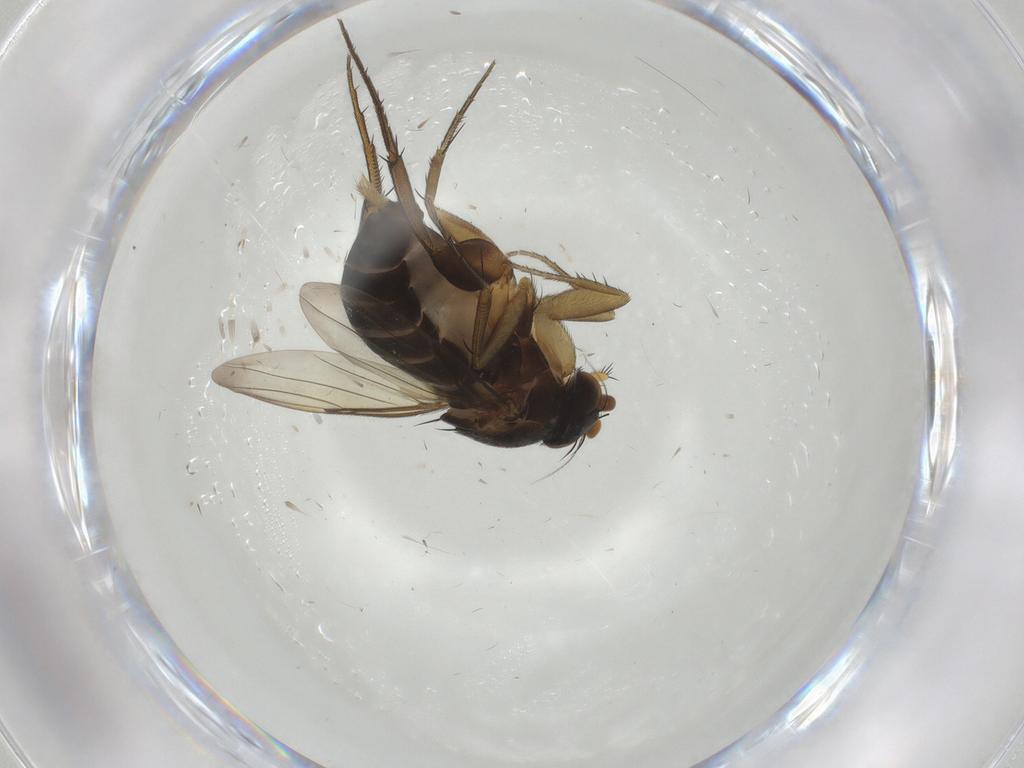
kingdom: Animalia
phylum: Arthropoda
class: Insecta
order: Diptera
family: Phoridae
